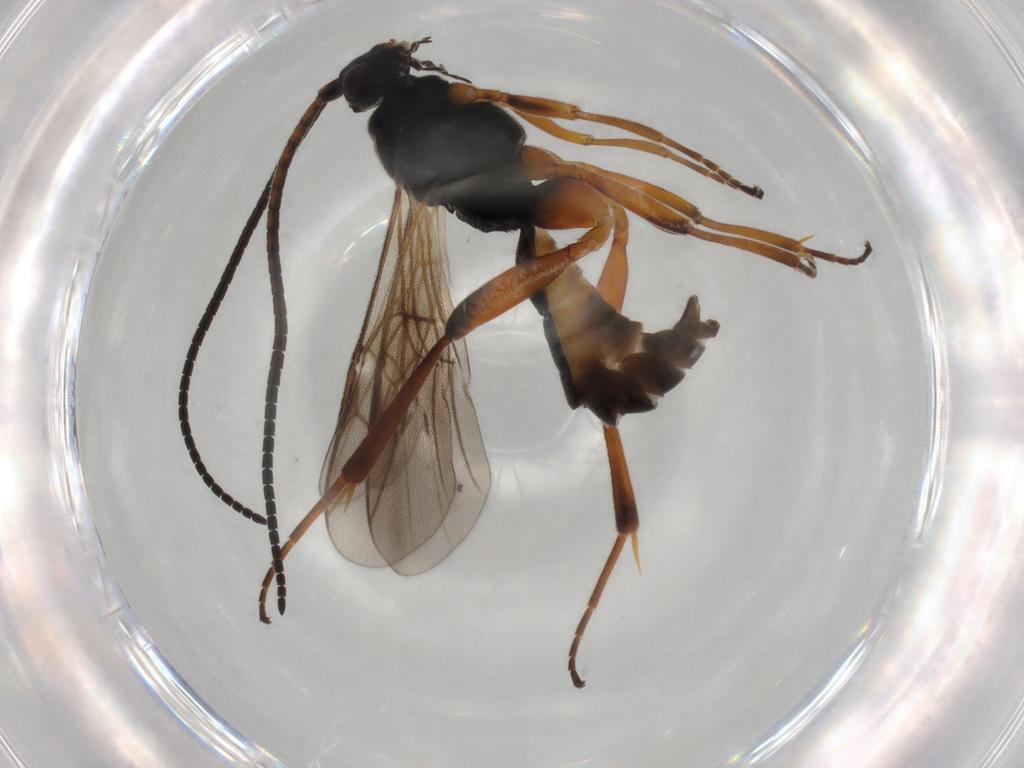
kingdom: Animalia
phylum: Arthropoda
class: Insecta
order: Hymenoptera
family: Braconidae
